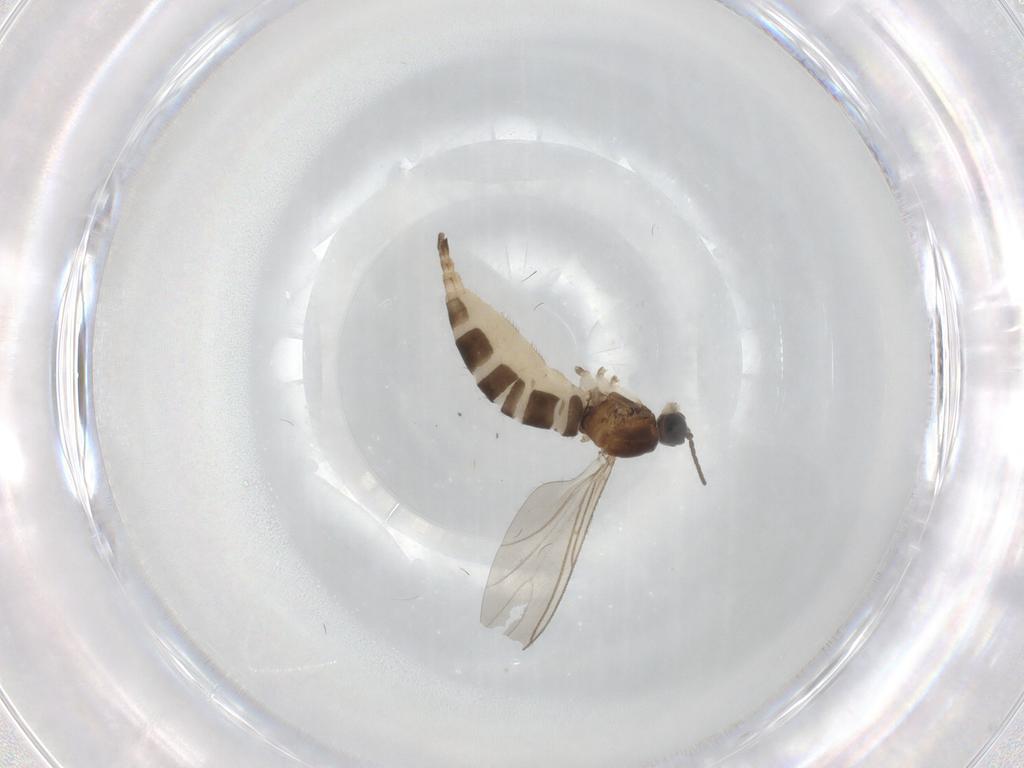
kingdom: Animalia
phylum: Arthropoda
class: Insecta
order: Diptera
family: Sciaridae
